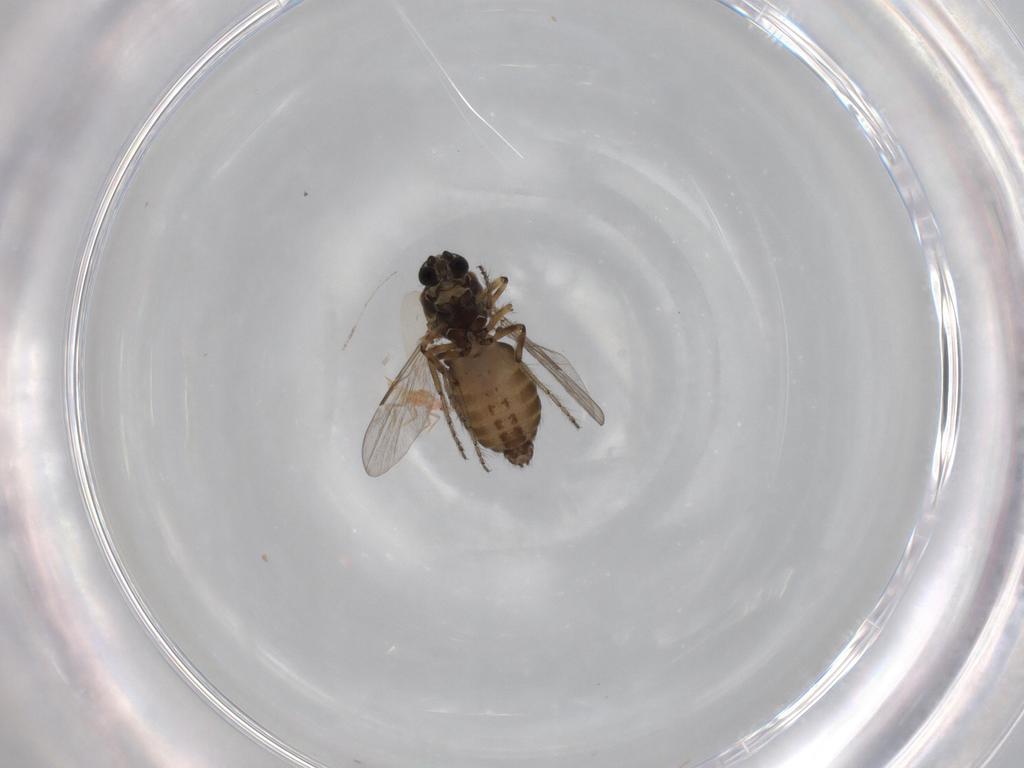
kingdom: Animalia
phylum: Arthropoda
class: Insecta
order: Diptera
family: Ceratopogonidae
